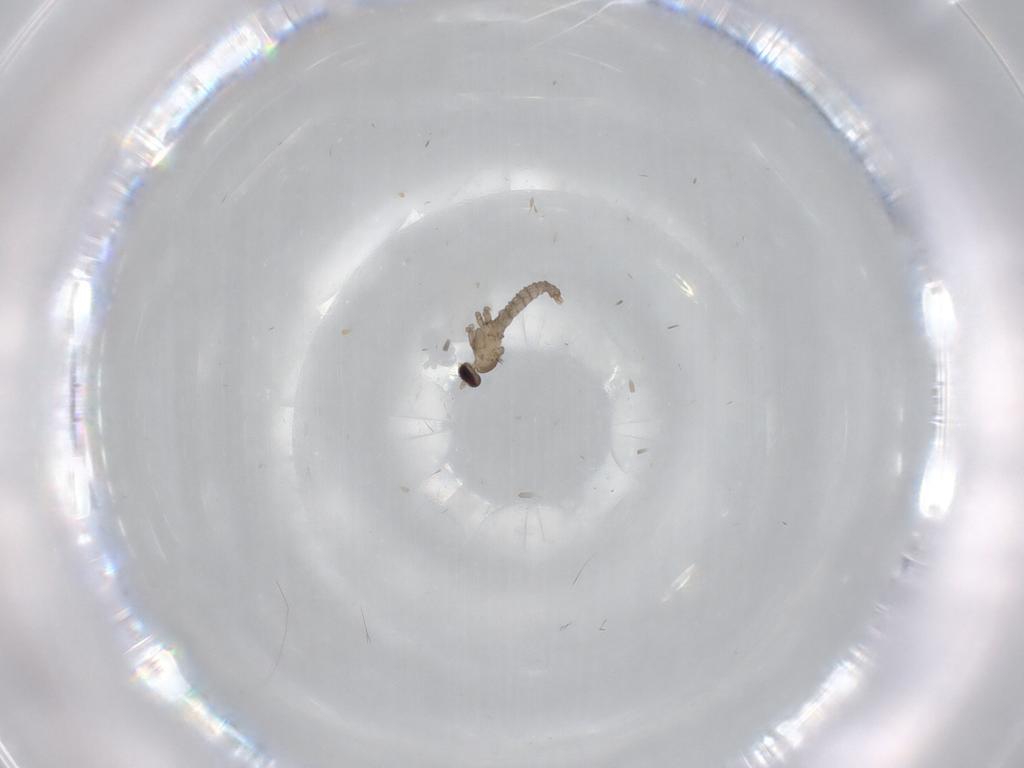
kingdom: Animalia
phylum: Arthropoda
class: Insecta
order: Diptera
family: Cecidomyiidae
